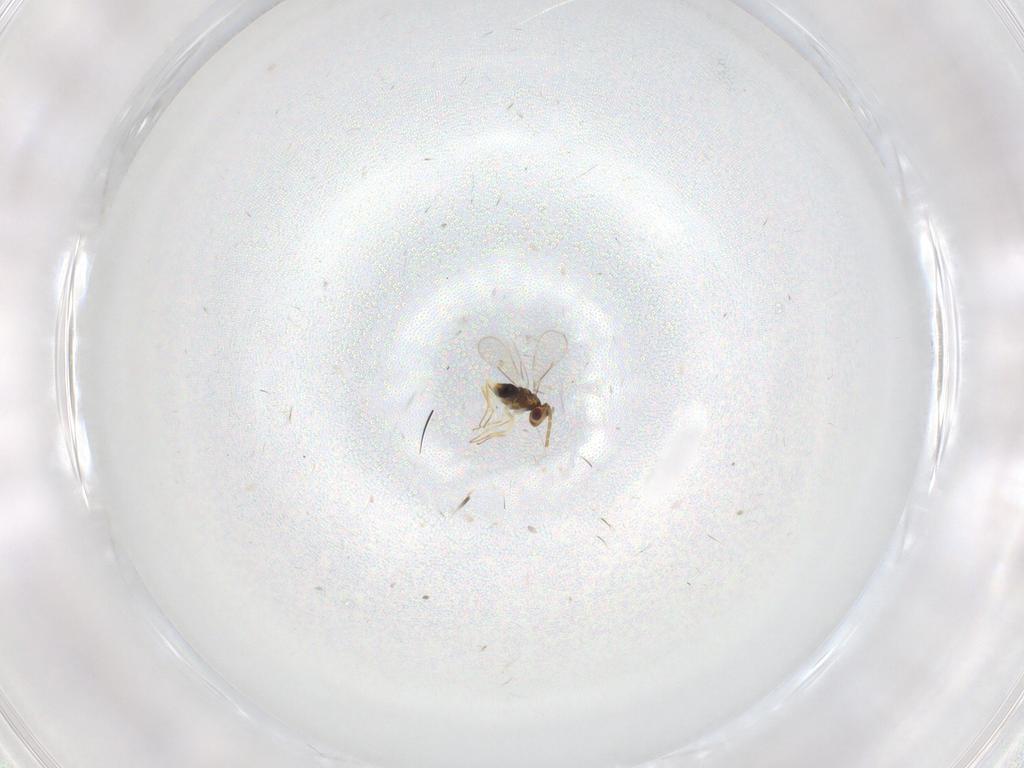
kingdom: Animalia
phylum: Arthropoda
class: Insecta
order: Hymenoptera
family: Aphelinidae
